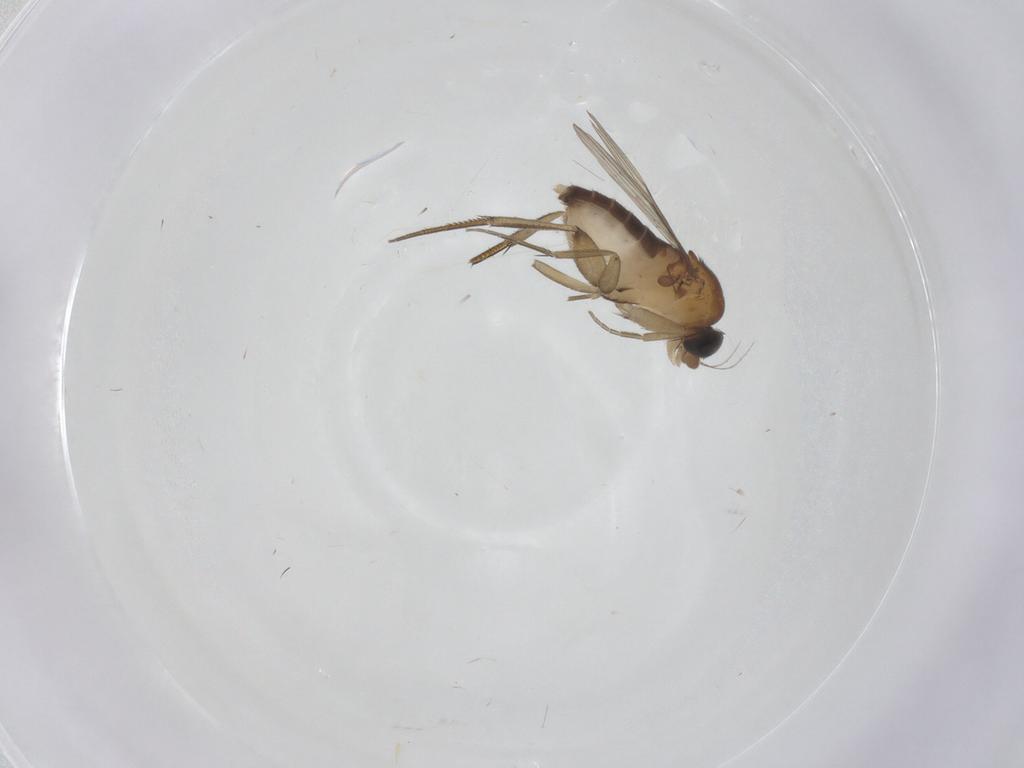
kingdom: Animalia
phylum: Arthropoda
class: Insecta
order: Diptera
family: Phoridae
